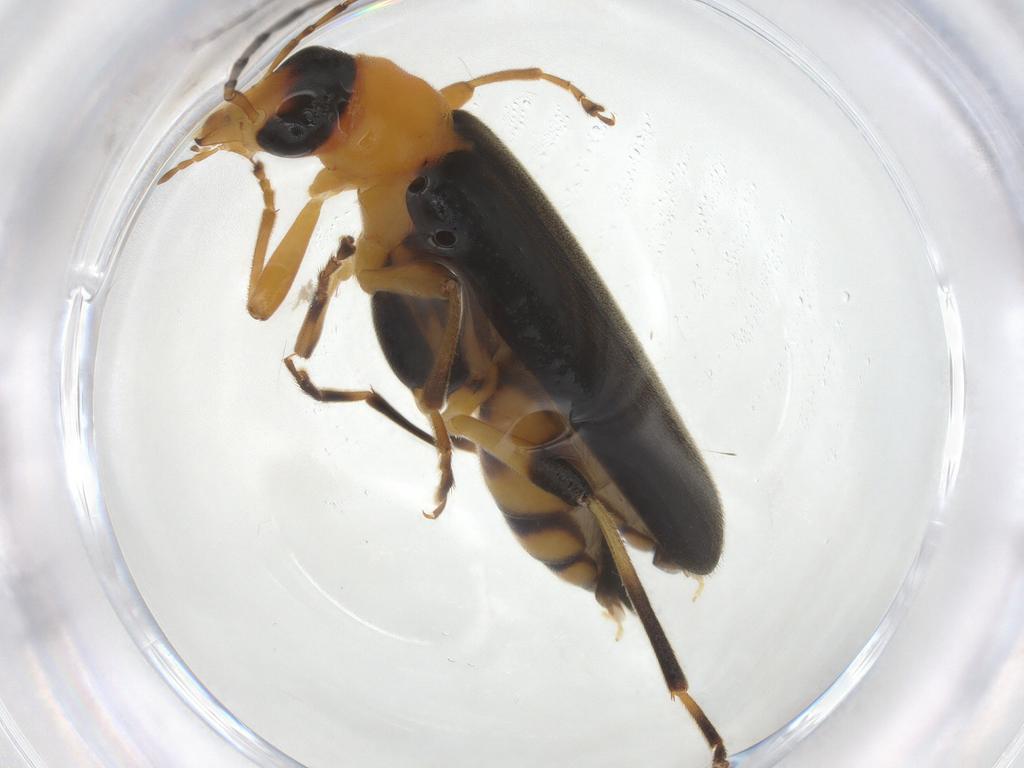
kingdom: Animalia
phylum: Arthropoda
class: Insecta
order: Coleoptera
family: Oedemeridae
